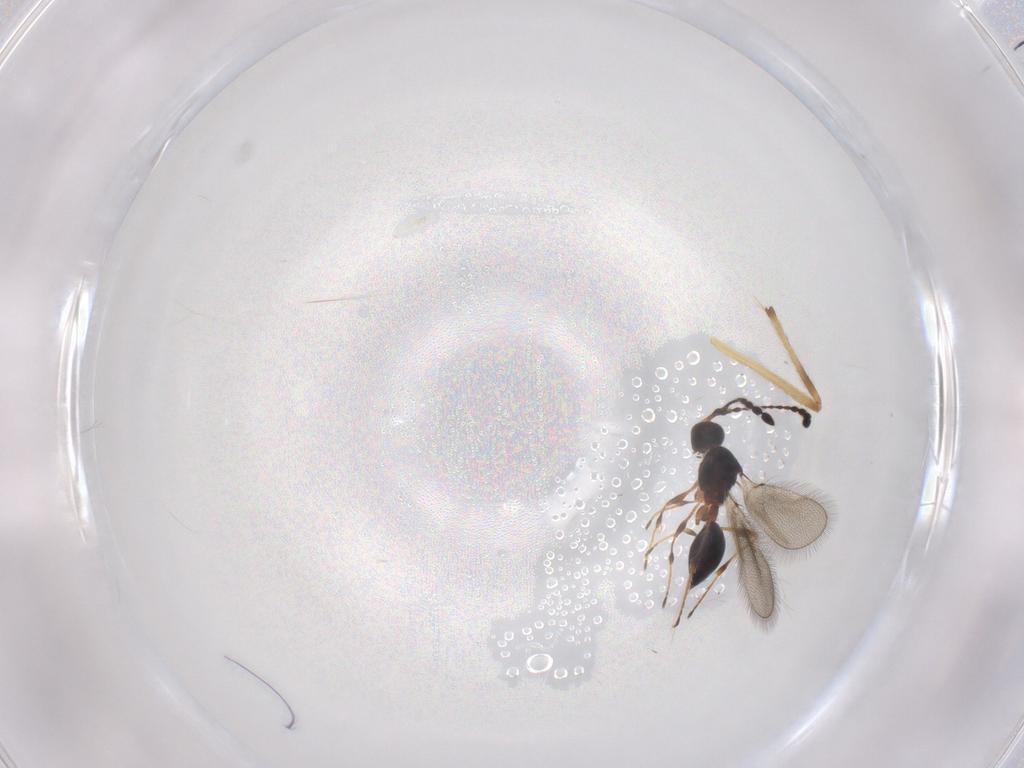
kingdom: Animalia
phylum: Arthropoda
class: Insecta
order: Hymenoptera
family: Diapriidae
